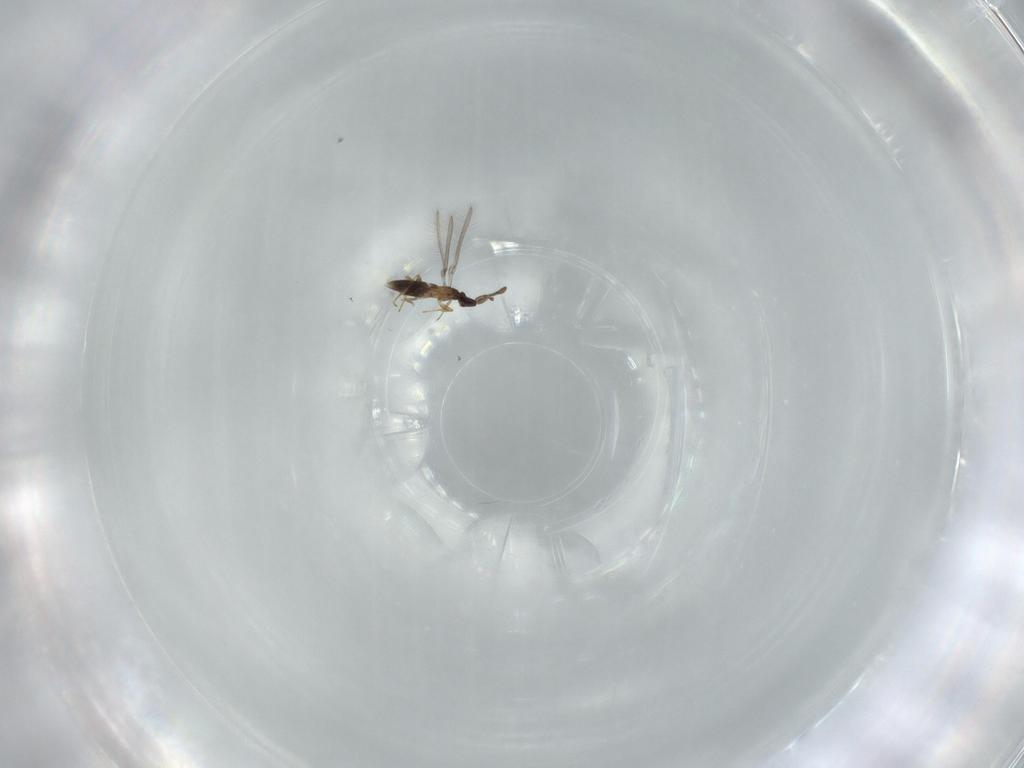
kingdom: Animalia
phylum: Arthropoda
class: Insecta
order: Hymenoptera
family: Mymaridae
